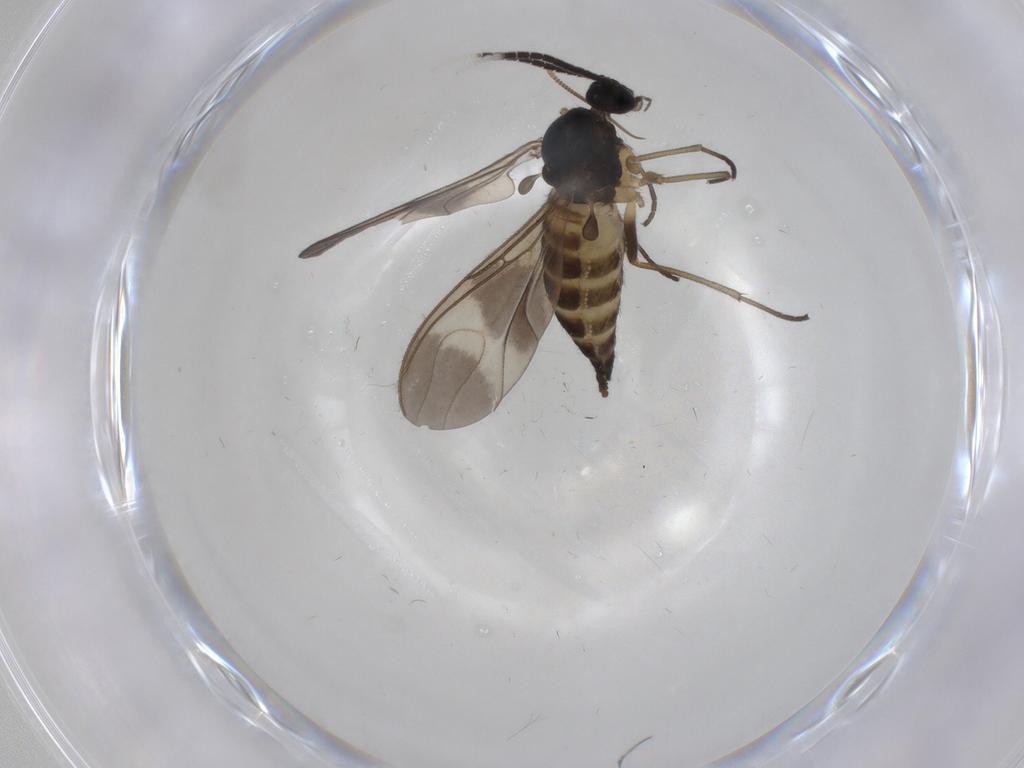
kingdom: Animalia
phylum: Arthropoda
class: Insecta
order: Diptera
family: Sciaridae
